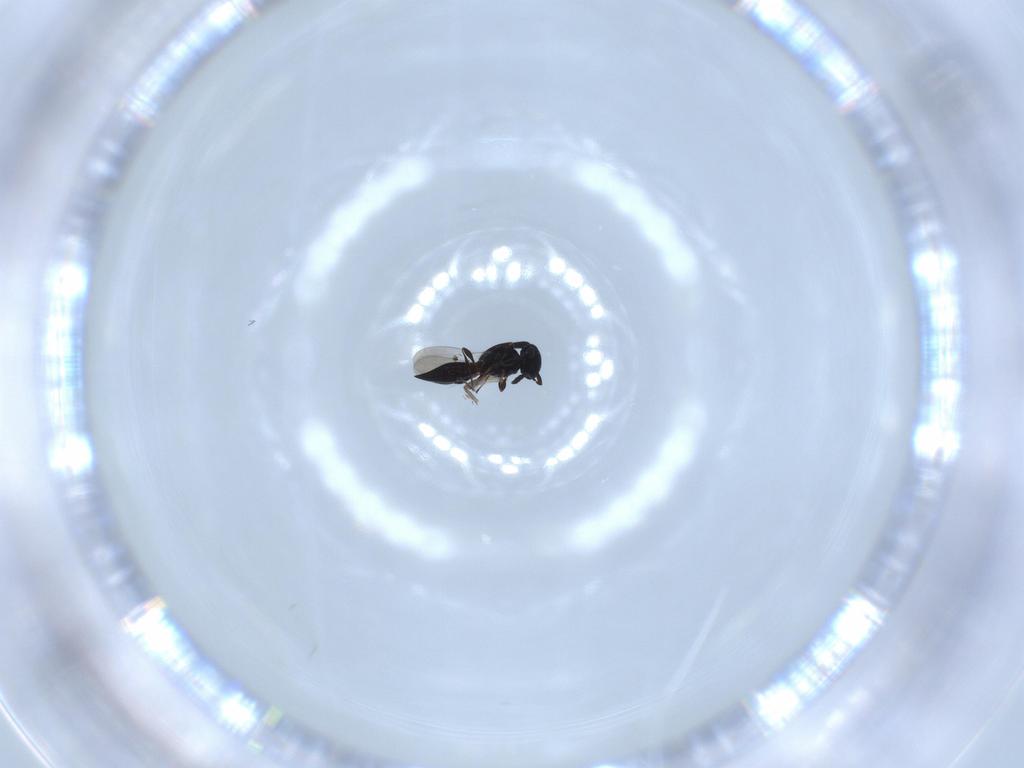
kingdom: Animalia
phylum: Arthropoda
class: Insecta
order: Hymenoptera
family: Platygastridae
